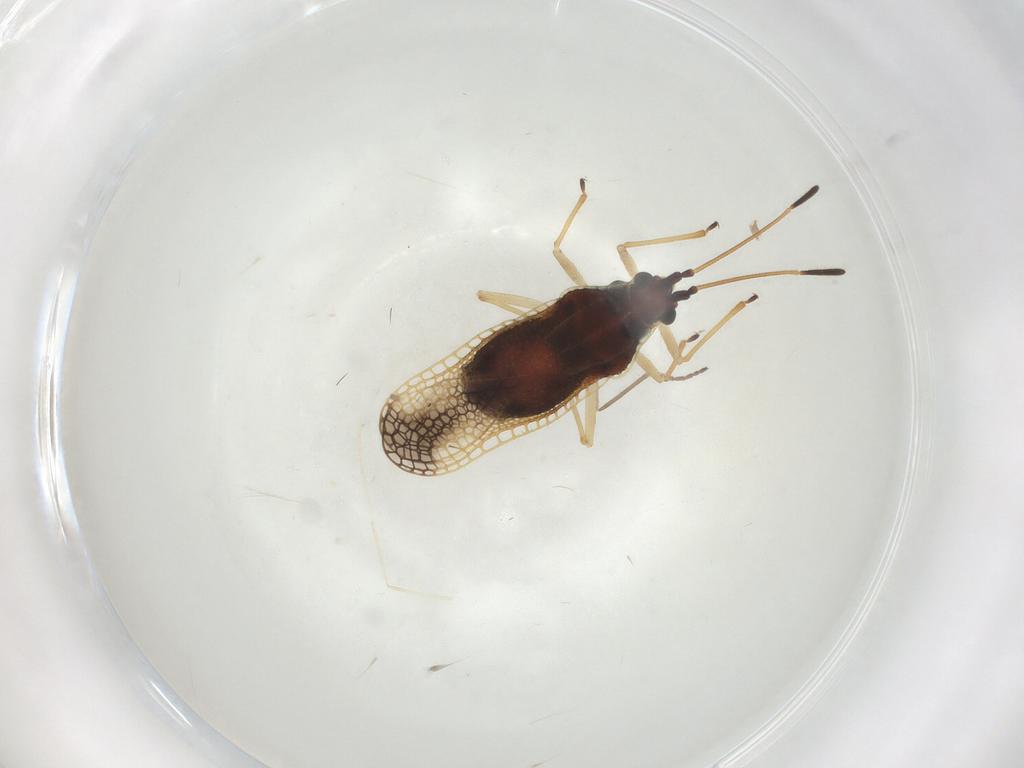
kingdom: Animalia
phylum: Arthropoda
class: Insecta
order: Hemiptera
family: Tingidae
